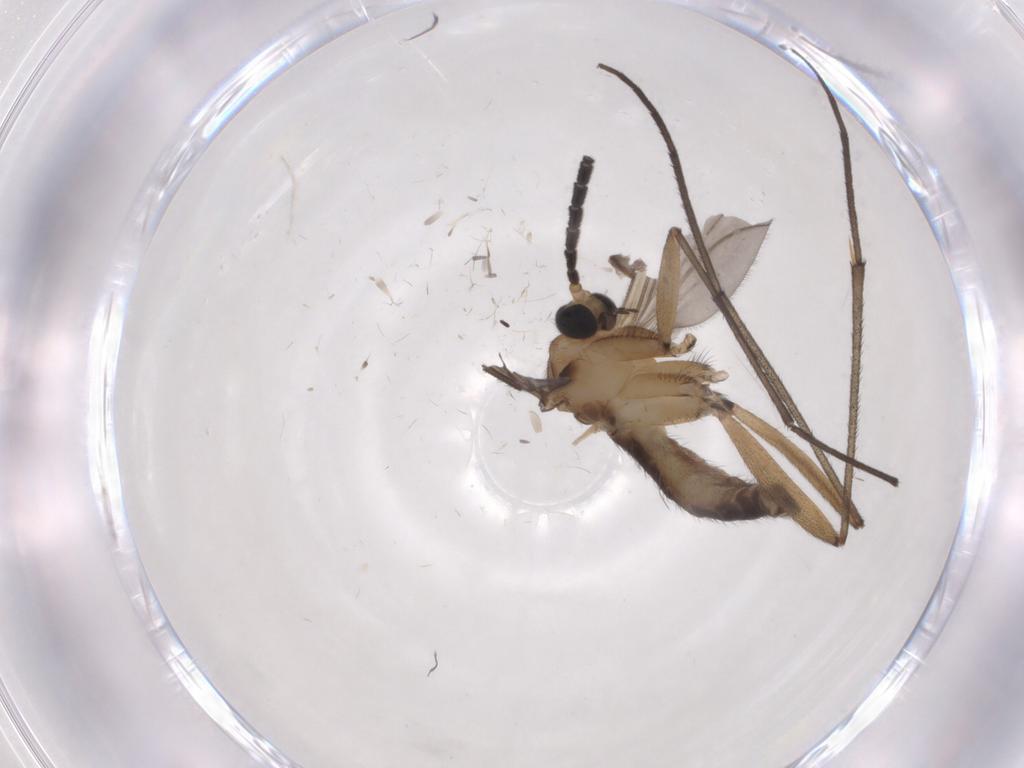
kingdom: Animalia
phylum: Arthropoda
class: Insecta
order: Diptera
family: Sciaridae
